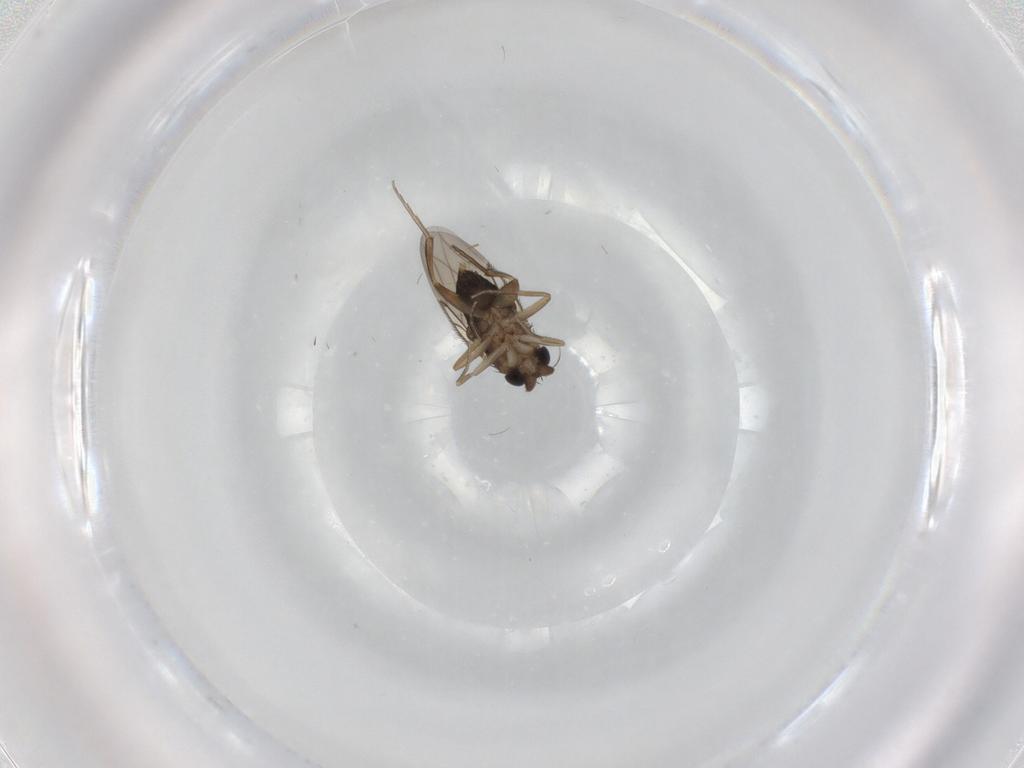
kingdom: Animalia
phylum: Arthropoda
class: Insecta
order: Diptera
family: Phoridae
